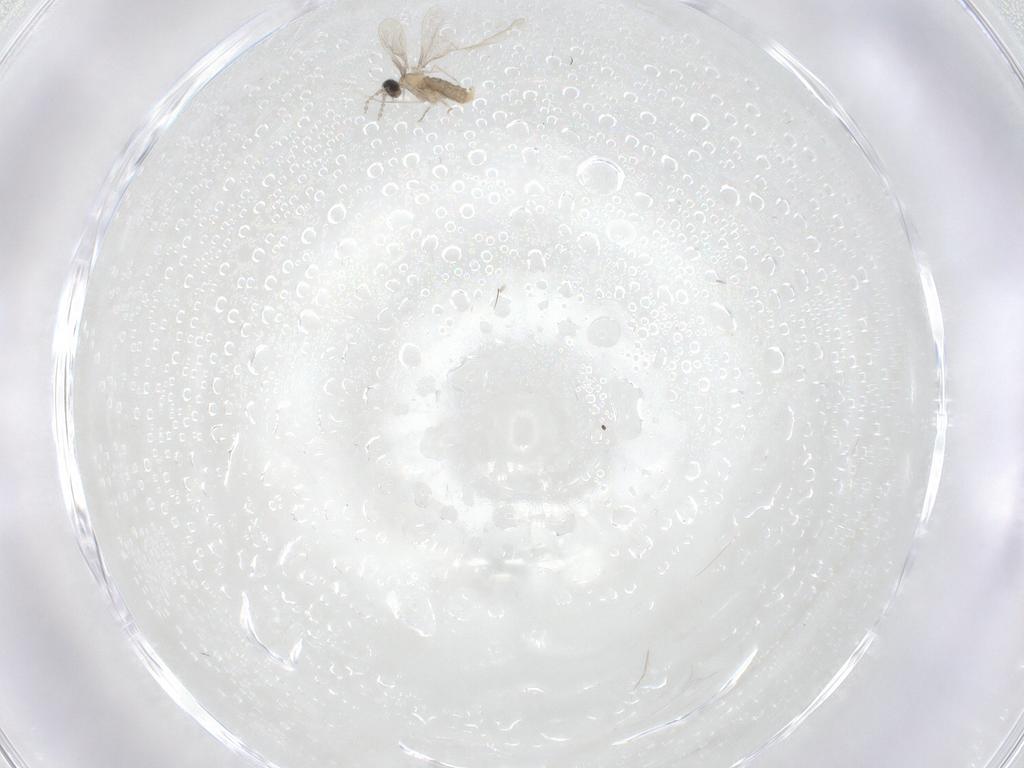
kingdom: Animalia
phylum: Arthropoda
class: Insecta
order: Diptera
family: Cecidomyiidae
